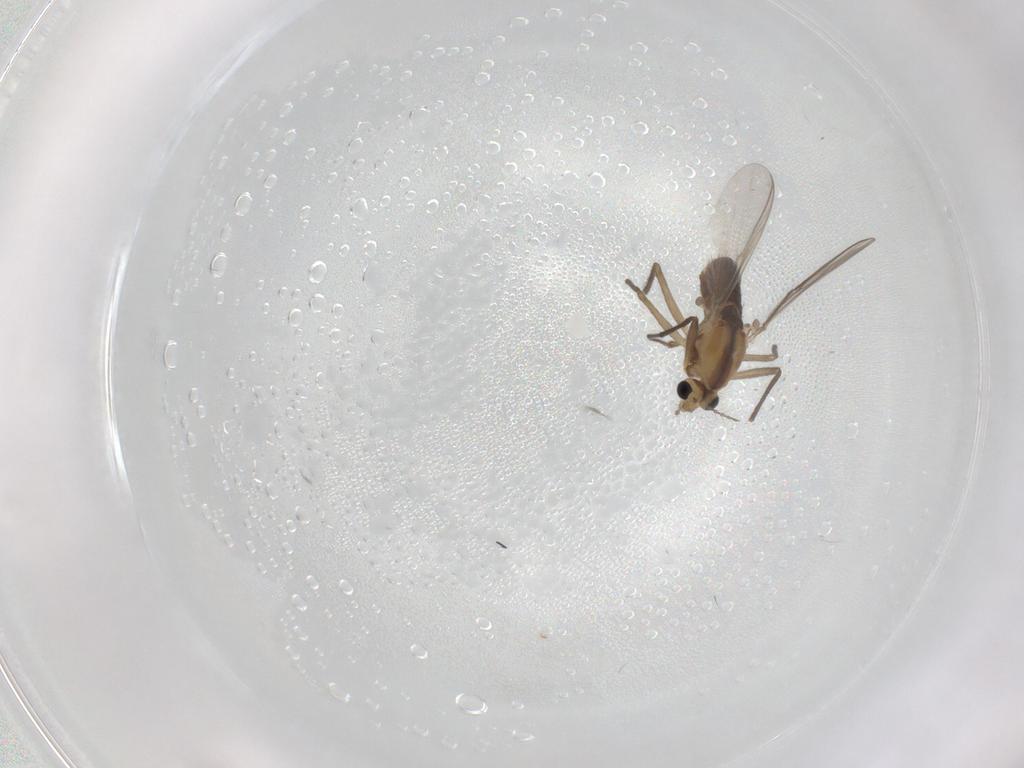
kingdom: Animalia
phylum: Arthropoda
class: Insecta
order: Diptera
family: Chironomidae
